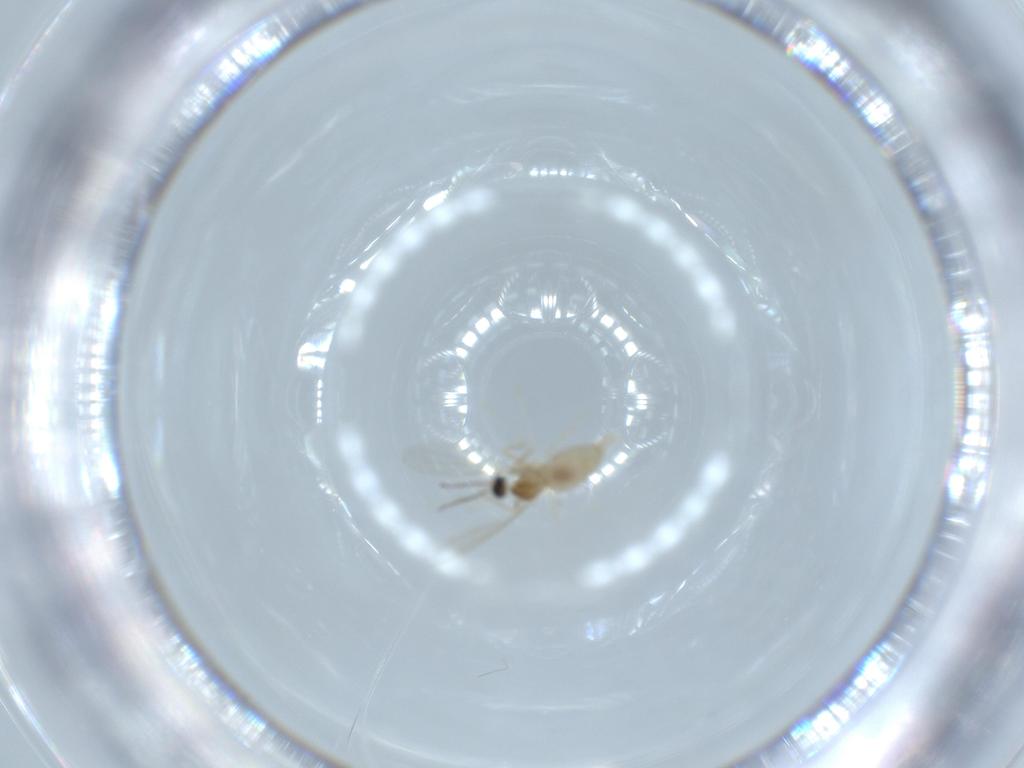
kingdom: Animalia
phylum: Arthropoda
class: Insecta
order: Diptera
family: Cecidomyiidae
